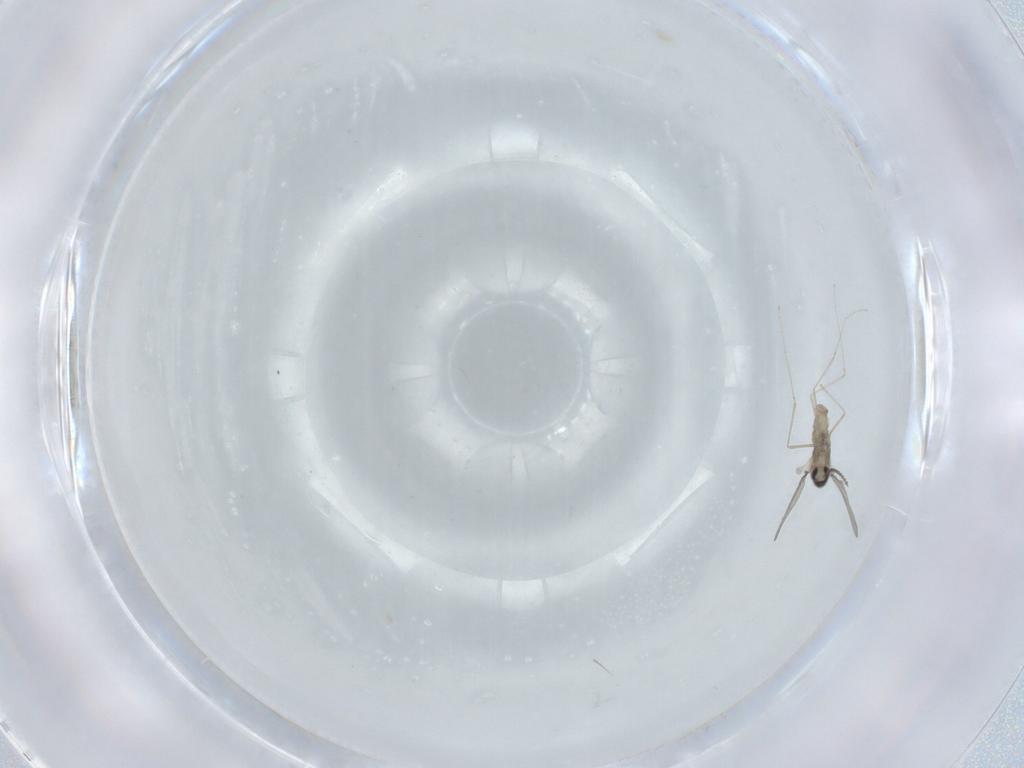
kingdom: Animalia
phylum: Arthropoda
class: Insecta
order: Diptera
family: Cecidomyiidae
